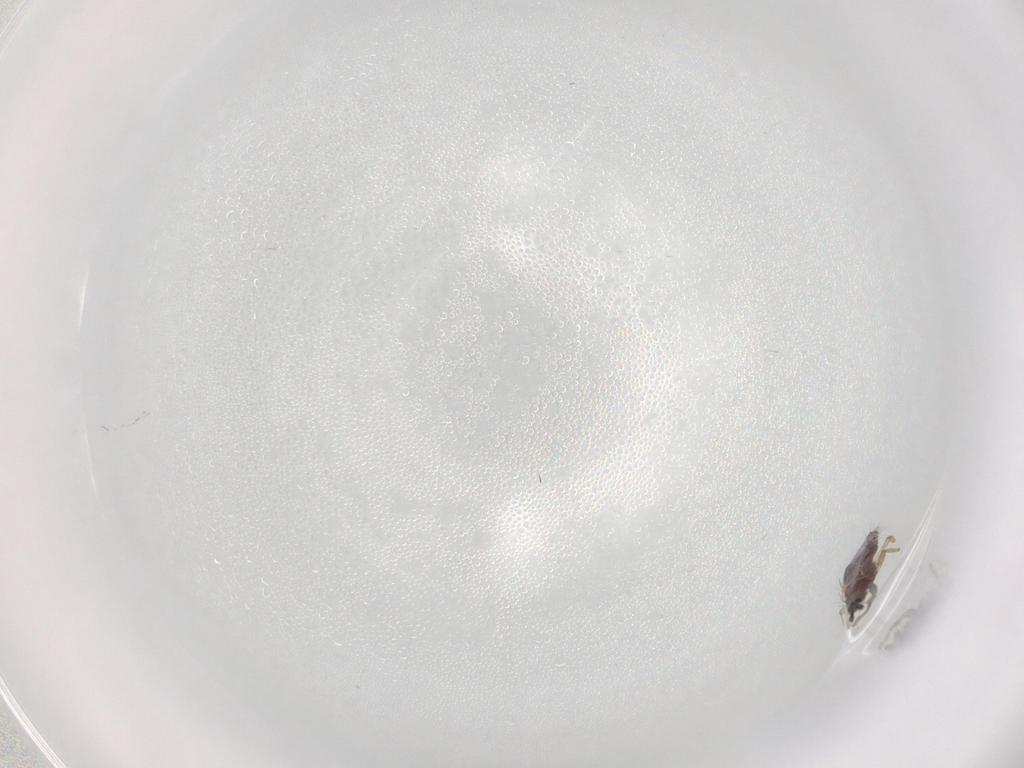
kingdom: Animalia
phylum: Arthropoda
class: Insecta
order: Thysanoptera
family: Phlaeothripidae
